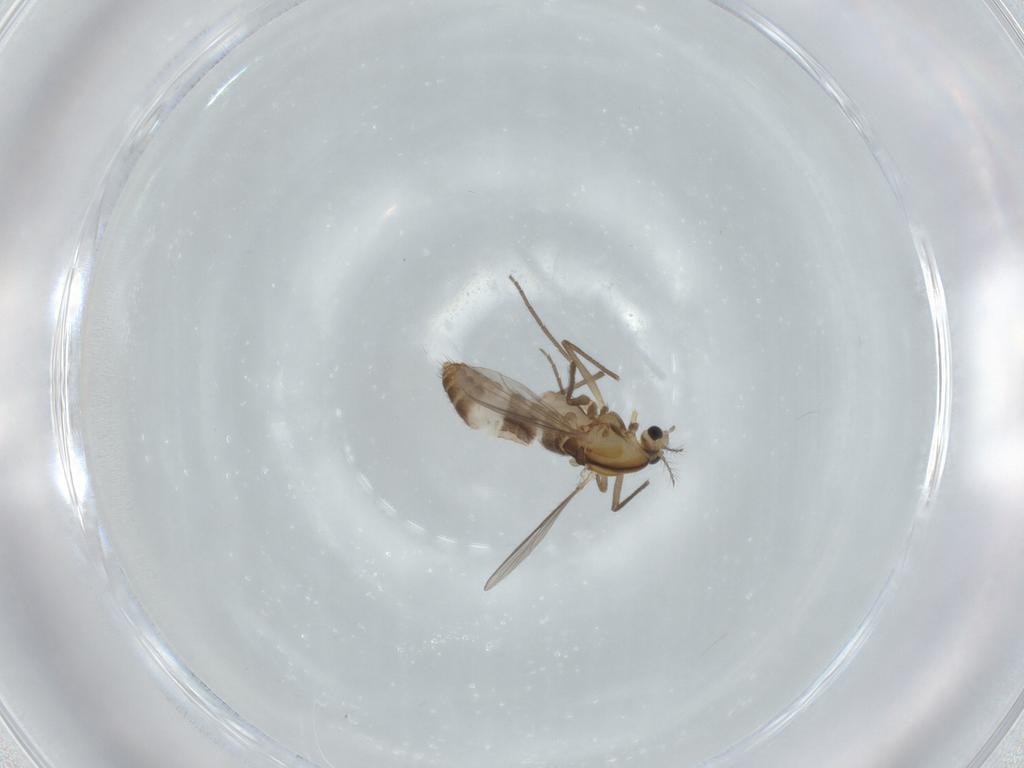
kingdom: Animalia
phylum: Arthropoda
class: Insecta
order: Diptera
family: Chironomidae
